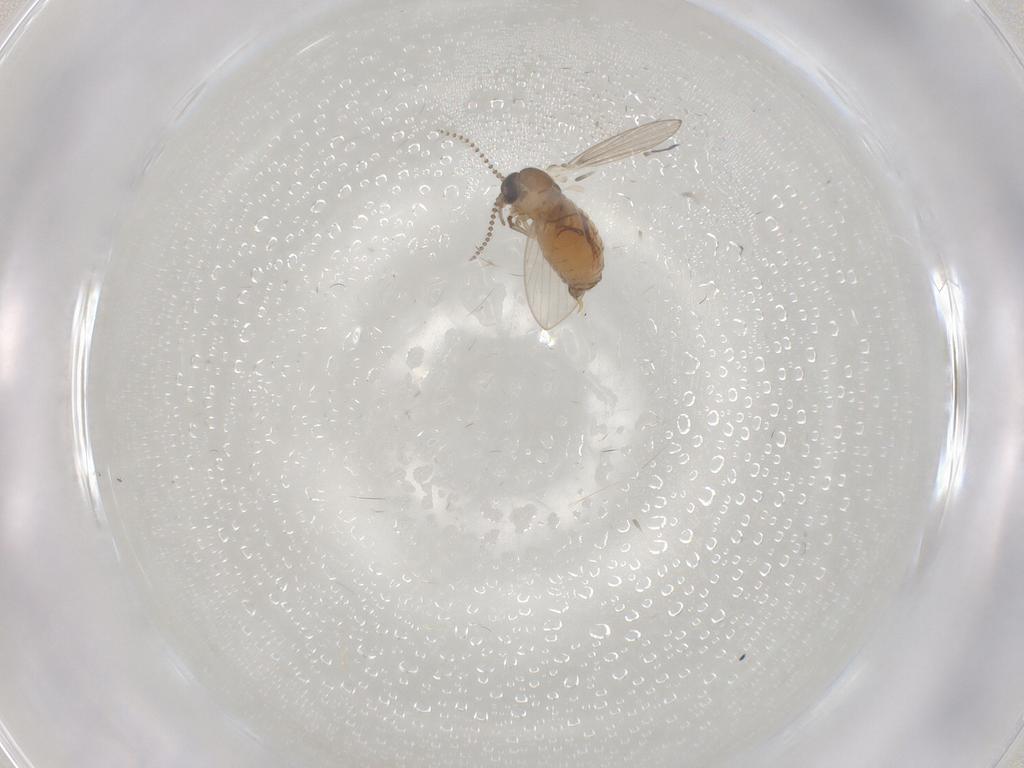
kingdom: Animalia
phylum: Arthropoda
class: Insecta
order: Diptera
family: Psychodidae
